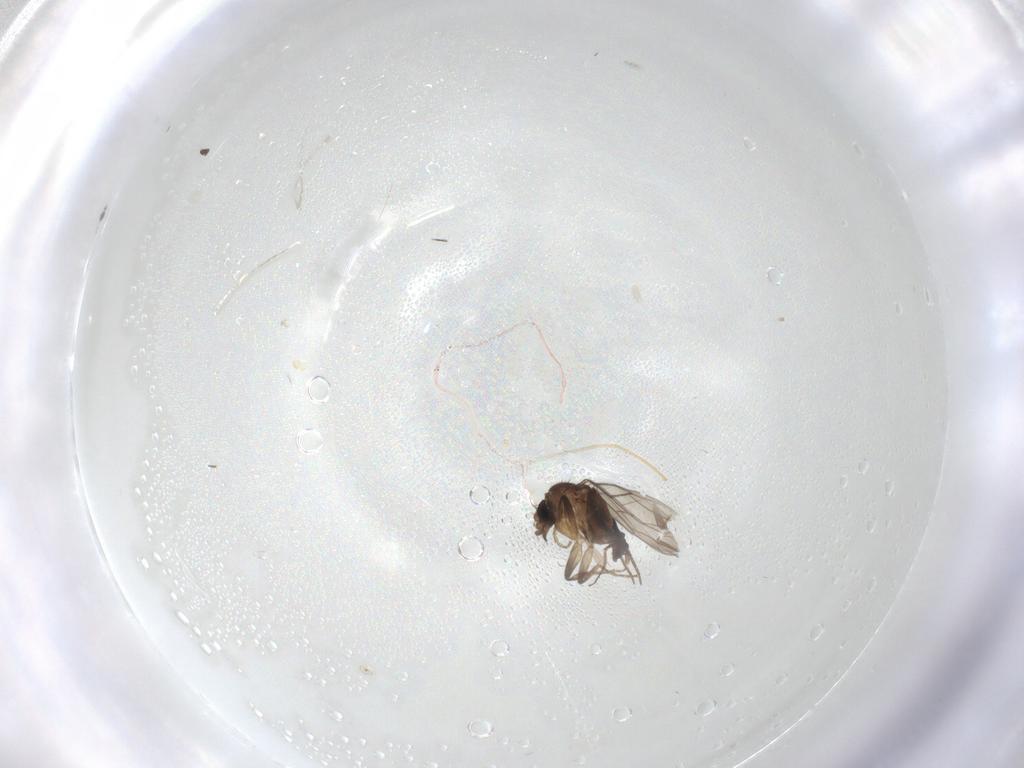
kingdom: Animalia
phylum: Arthropoda
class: Insecta
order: Diptera
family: Phoridae
